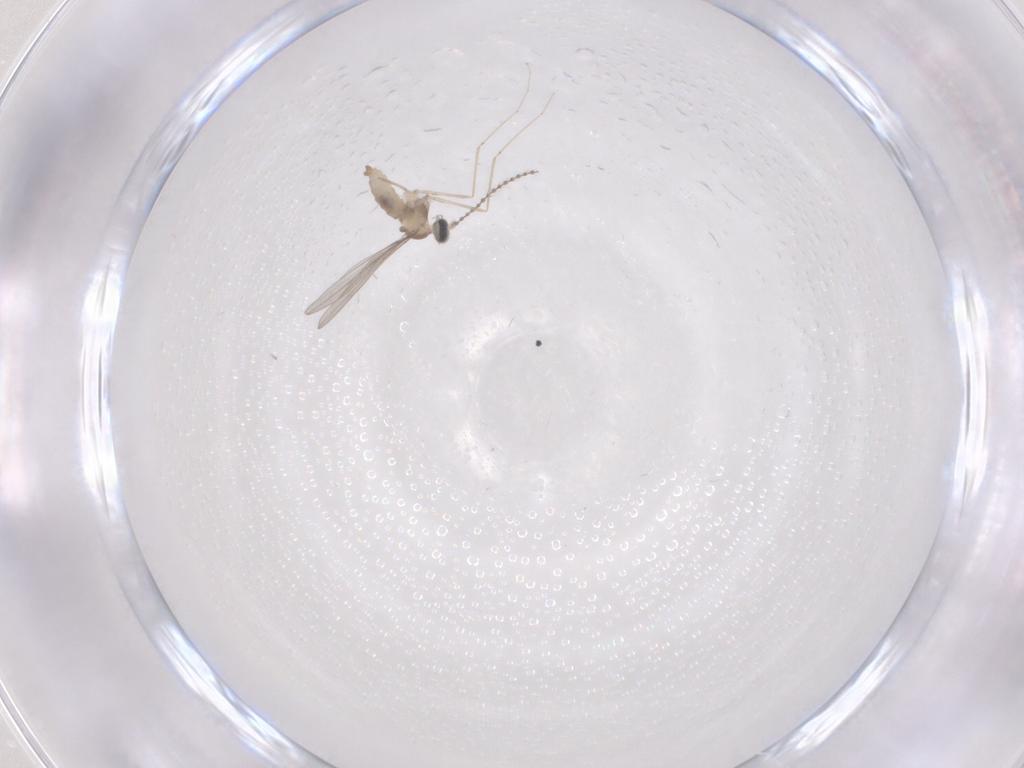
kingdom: Animalia
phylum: Arthropoda
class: Insecta
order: Diptera
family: Cecidomyiidae
